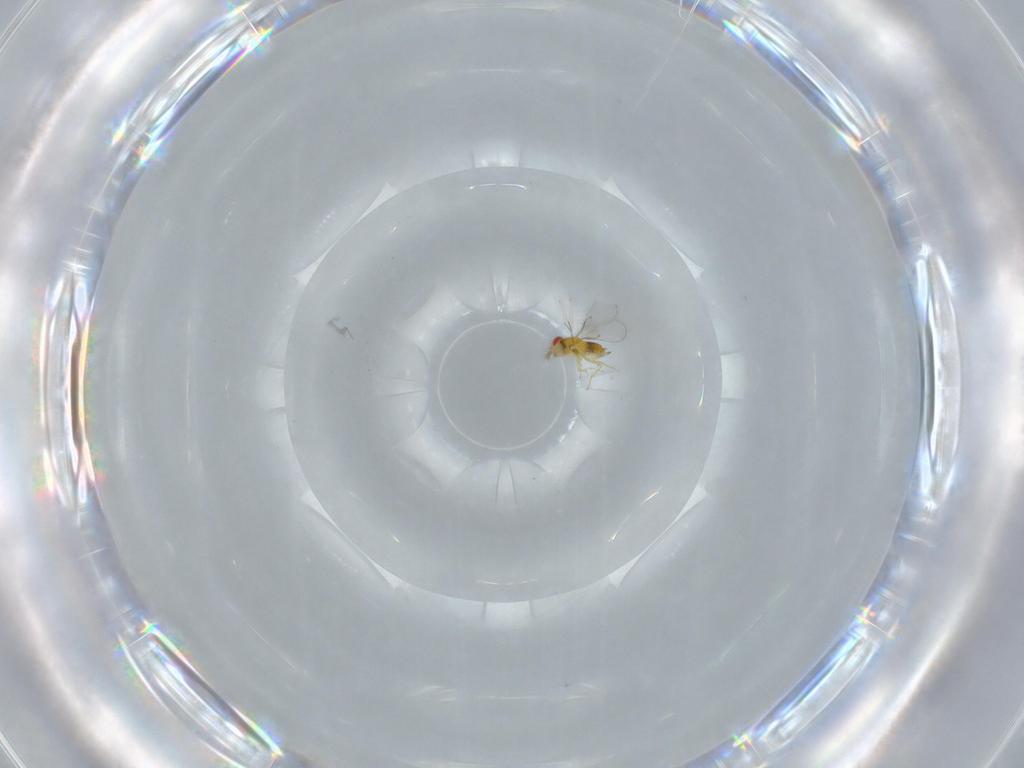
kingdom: Animalia
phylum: Arthropoda
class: Insecta
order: Hymenoptera
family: Trichogrammatidae
